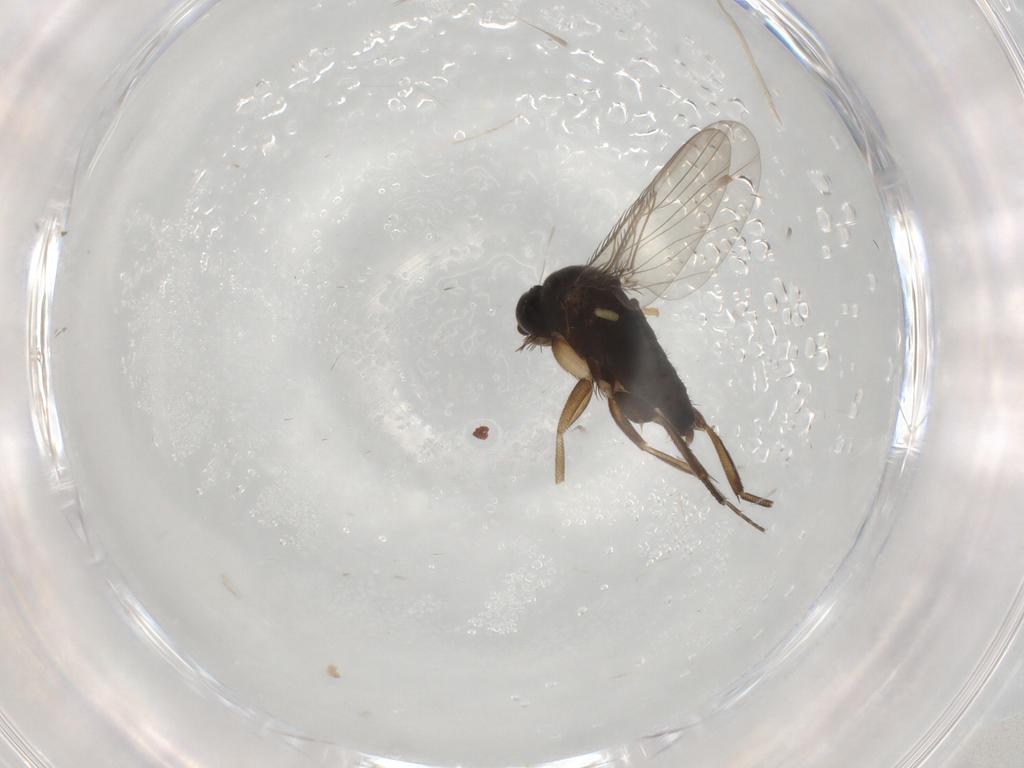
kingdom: Animalia
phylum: Arthropoda
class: Insecta
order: Diptera
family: Phoridae
